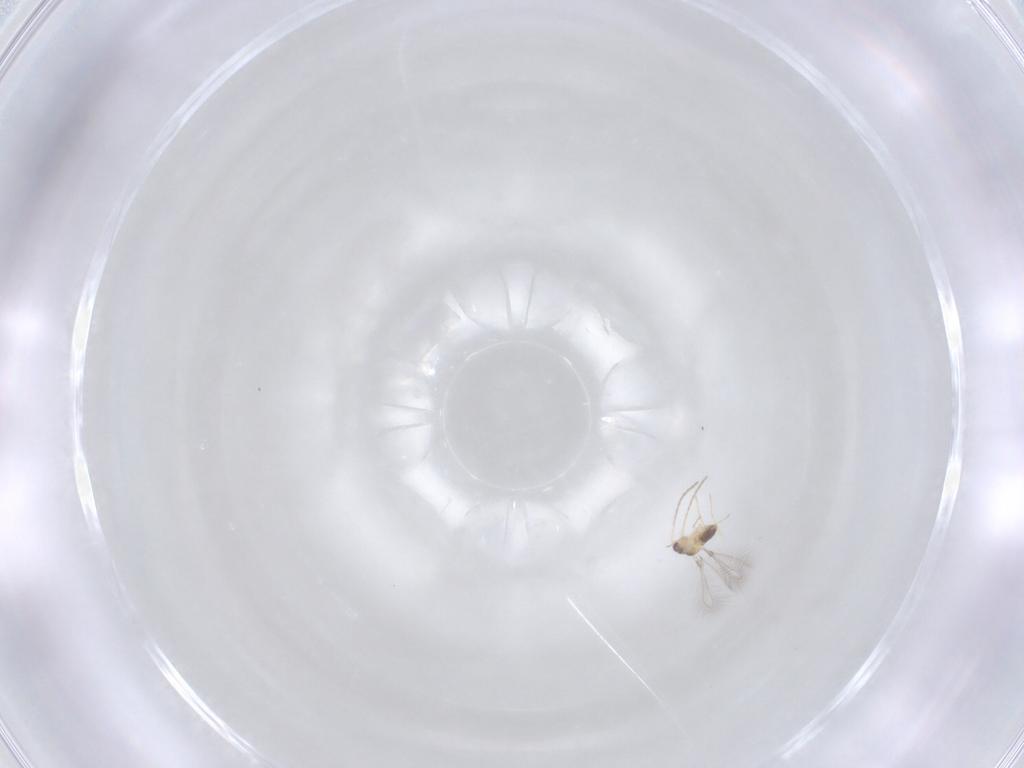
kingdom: Animalia
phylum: Arthropoda
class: Insecta
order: Hymenoptera
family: Mymaridae
